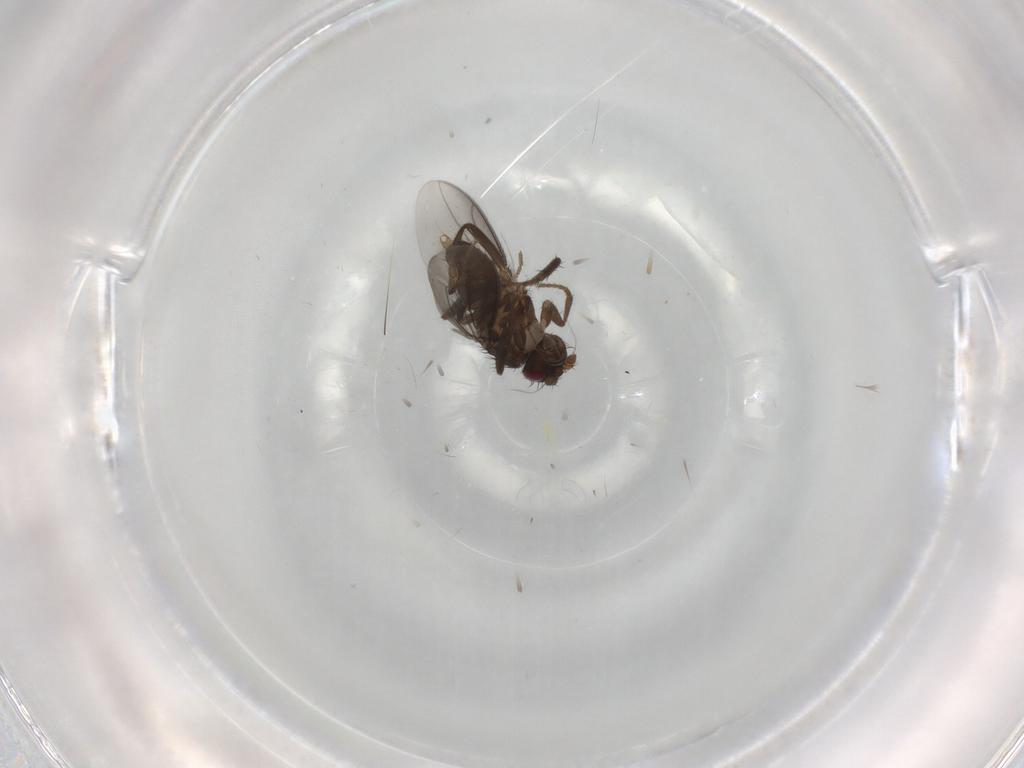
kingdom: Animalia
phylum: Arthropoda
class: Insecta
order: Diptera
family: Sphaeroceridae
